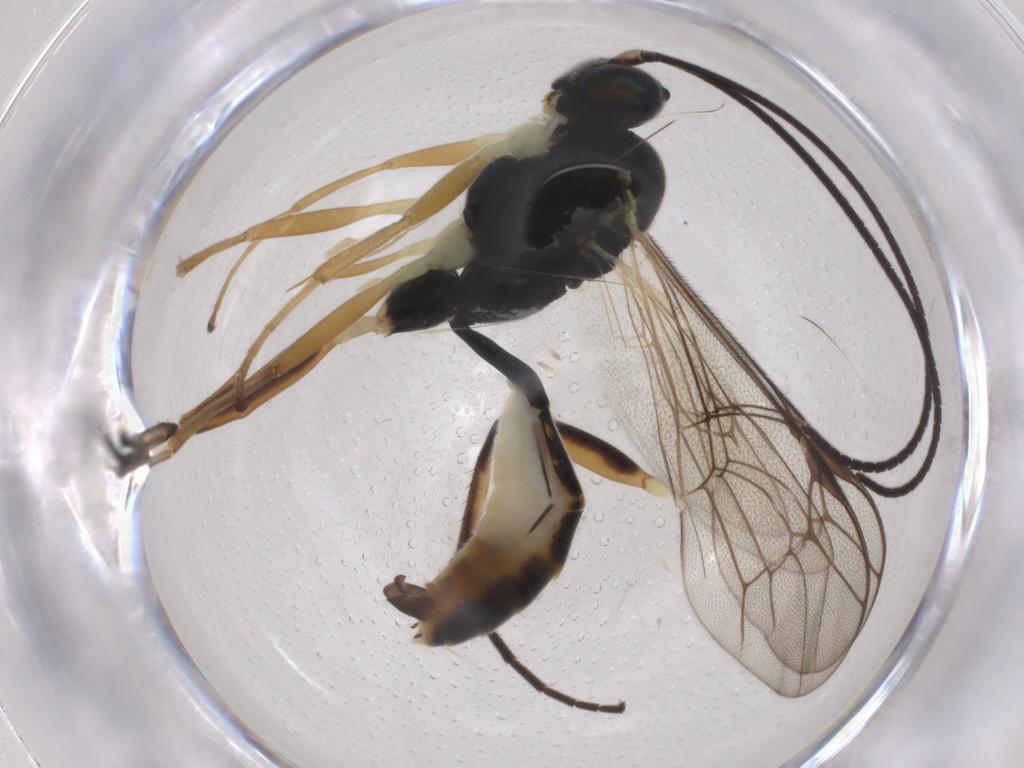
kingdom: Animalia
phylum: Arthropoda
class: Insecta
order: Hymenoptera
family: Ichneumonidae
